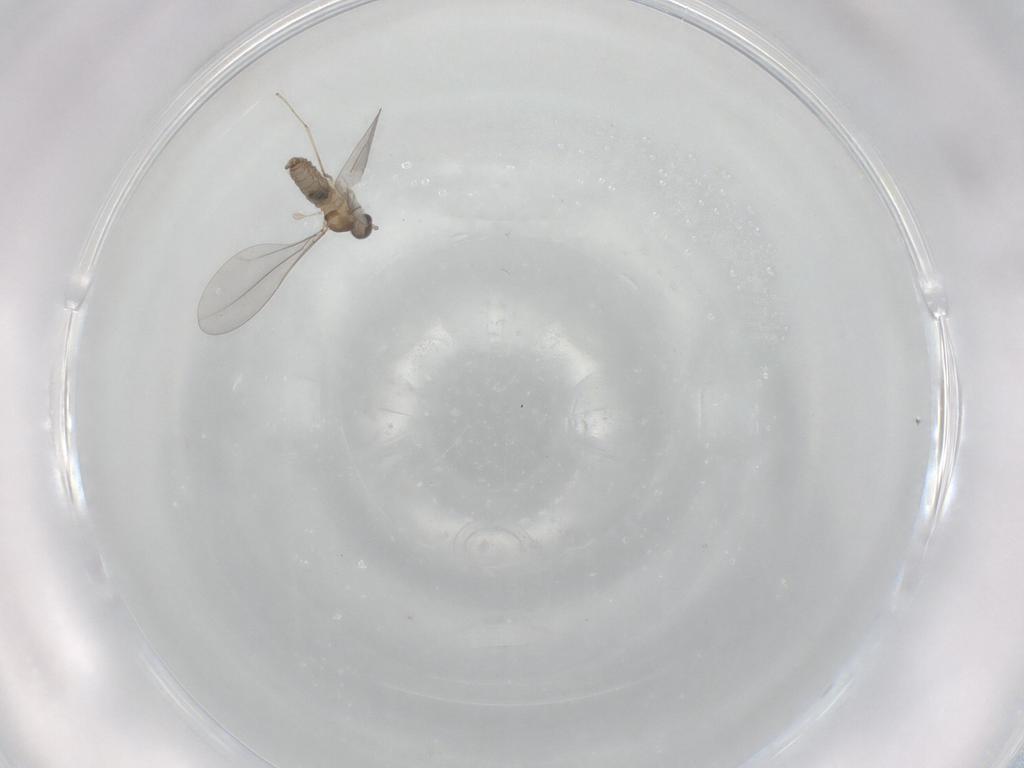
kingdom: Animalia
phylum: Arthropoda
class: Insecta
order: Diptera
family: Cecidomyiidae
